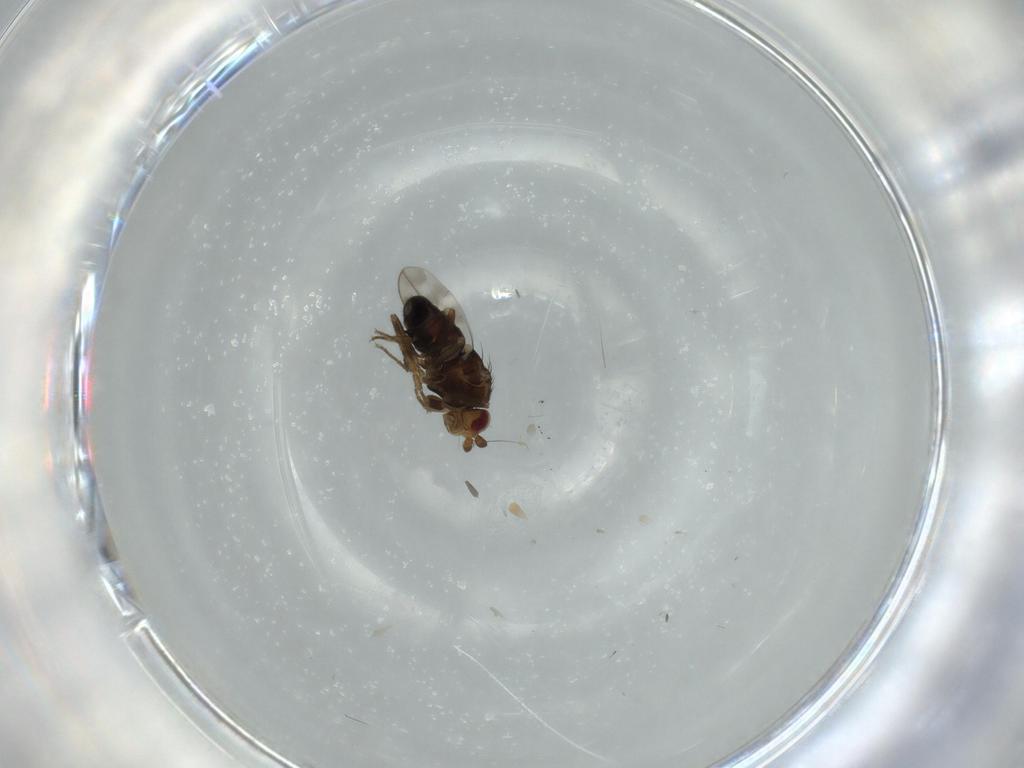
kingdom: Animalia
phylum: Arthropoda
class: Insecta
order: Diptera
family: Sphaeroceridae
